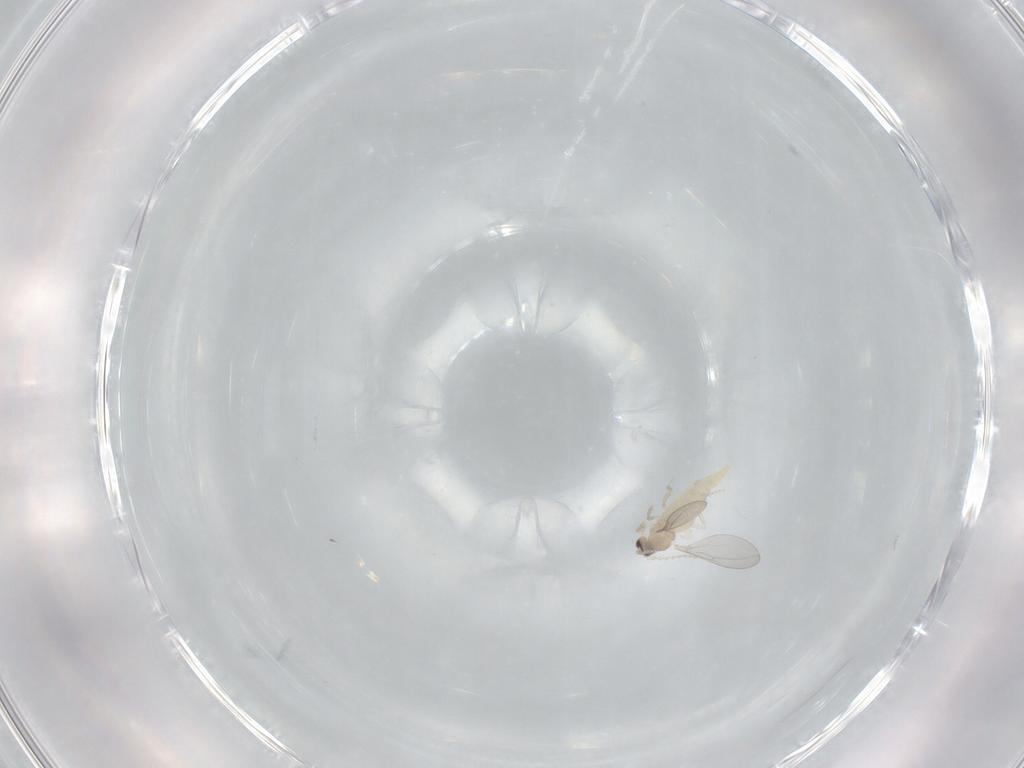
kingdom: Animalia
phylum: Arthropoda
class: Insecta
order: Diptera
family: Cecidomyiidae
